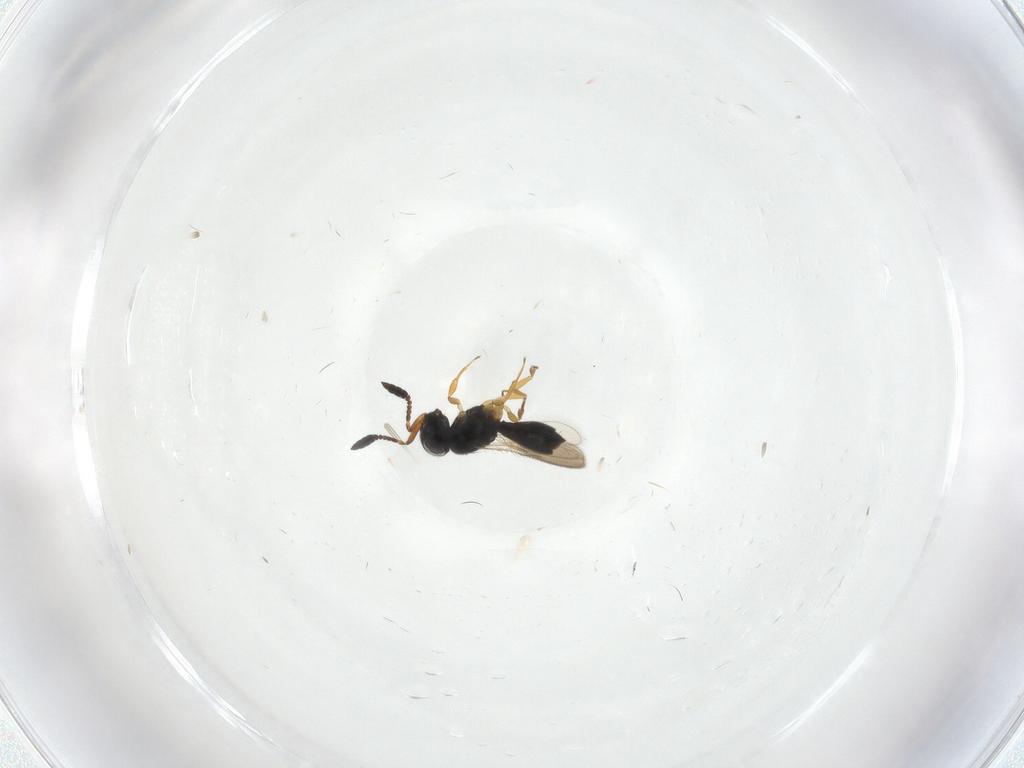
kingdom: Animalia
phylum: Arthropoda
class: Insecta
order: Hymenoptera
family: Scelionidae
